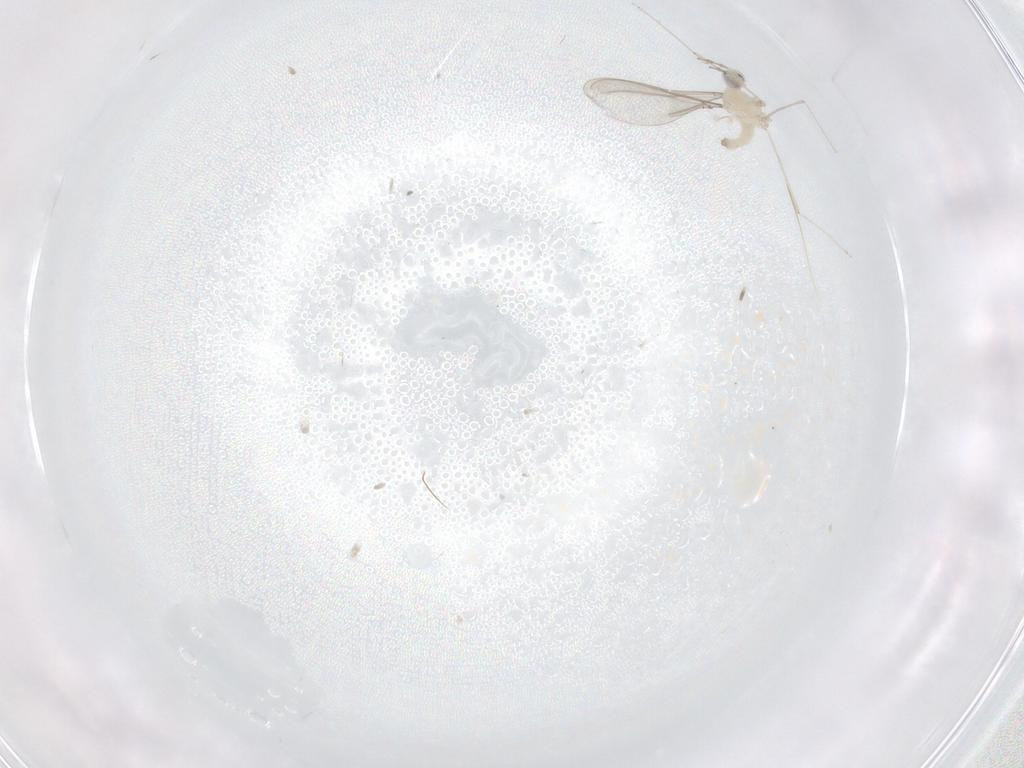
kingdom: Animalia
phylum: Arthropoda
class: Insecta
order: Diptera
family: Cecidomyiidae
